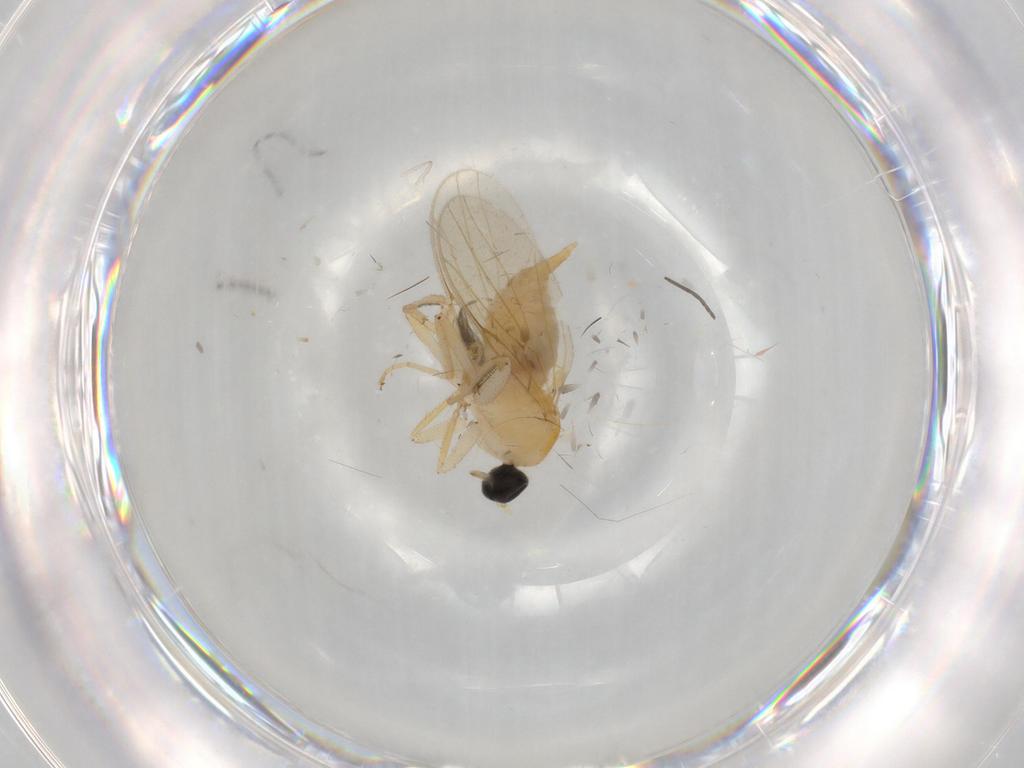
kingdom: Animalia
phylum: Arthropoda
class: Insecta
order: Diptera
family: Ceratopogonidae
